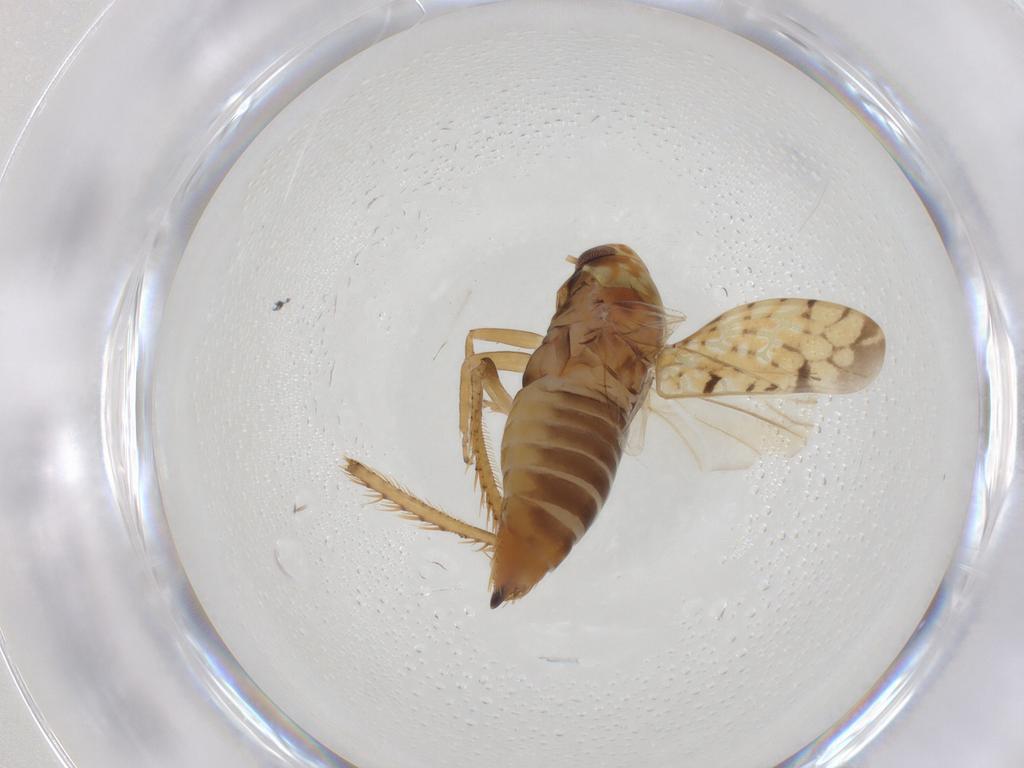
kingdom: Animalia
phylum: Arthropoda
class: Insecta
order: Hemiptera
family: Cicadellidae
